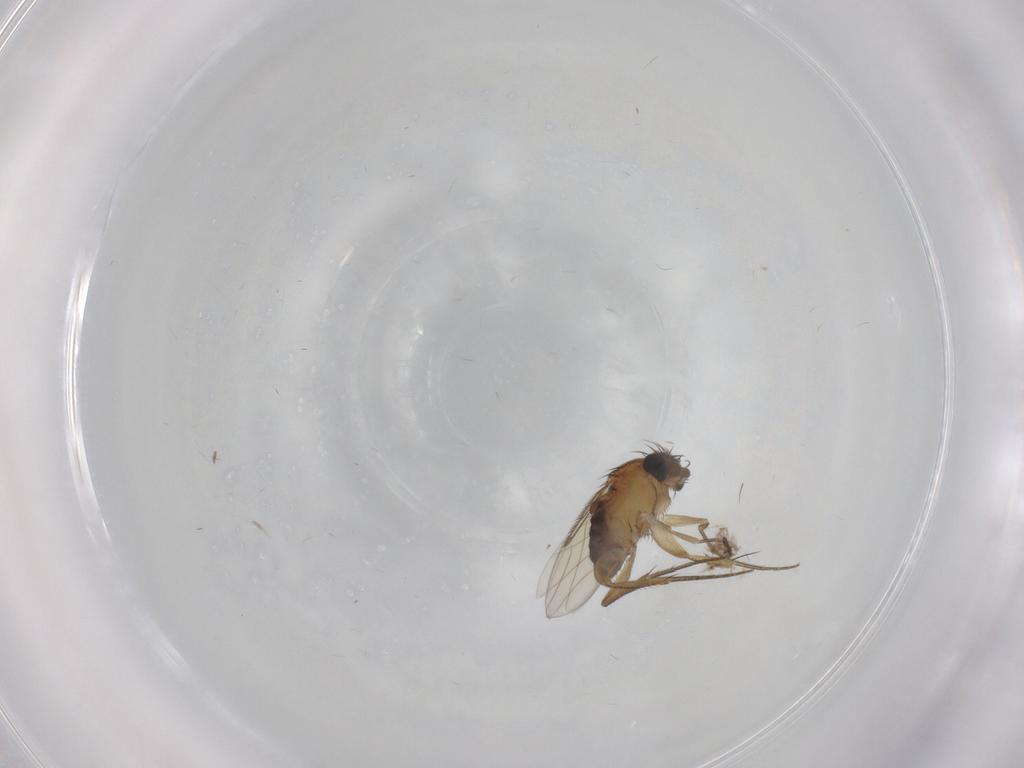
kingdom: Animalia
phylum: Arthropoda
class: Insecta
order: Diptera
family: Phoridae
